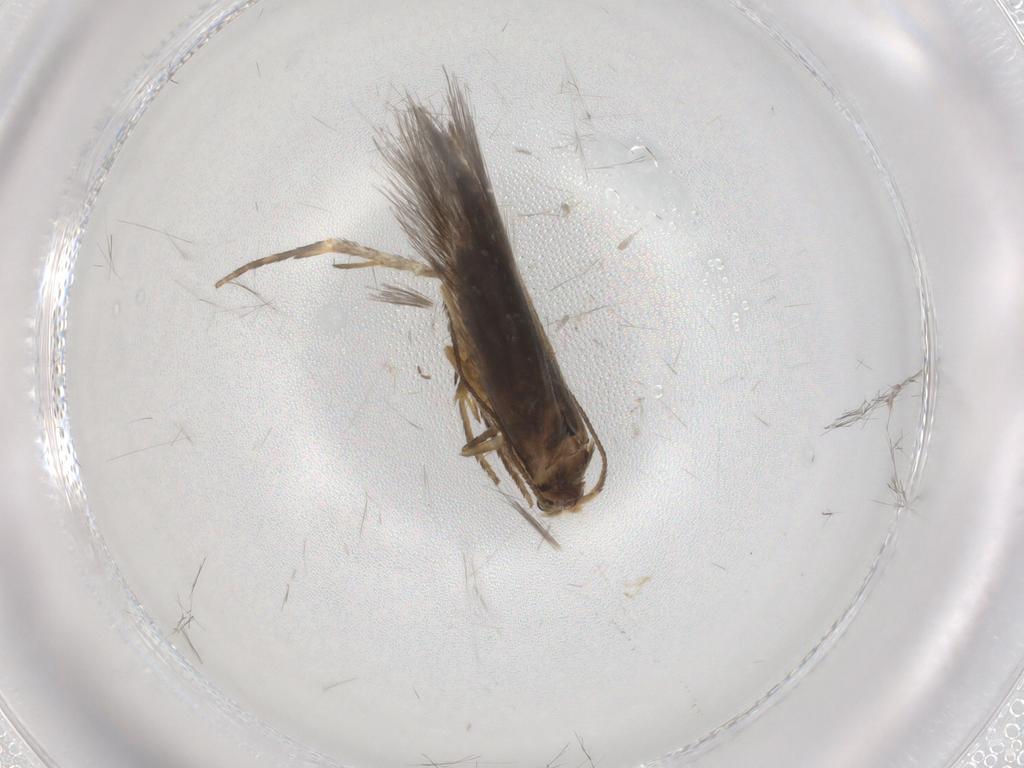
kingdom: Animalia
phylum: Arthropoda
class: Insecta
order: Lepidoptera
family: Nepticulidae
